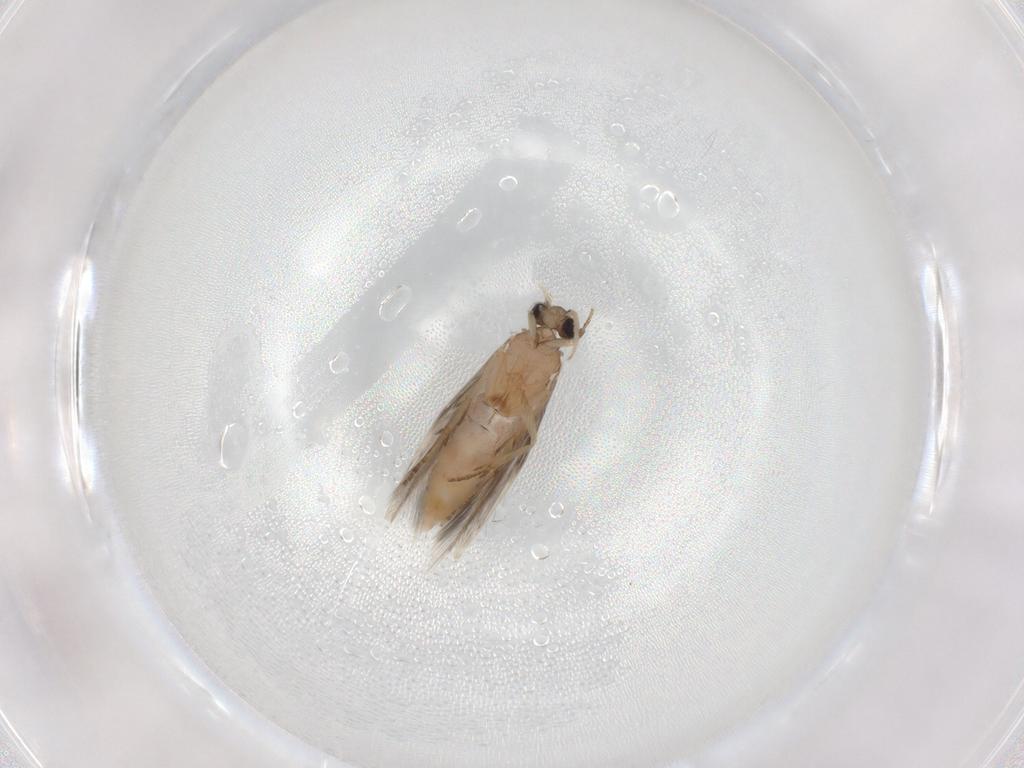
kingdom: Animalia
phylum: Arthropoda
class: Insecta
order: Trichoptera
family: Hydroptilidae
